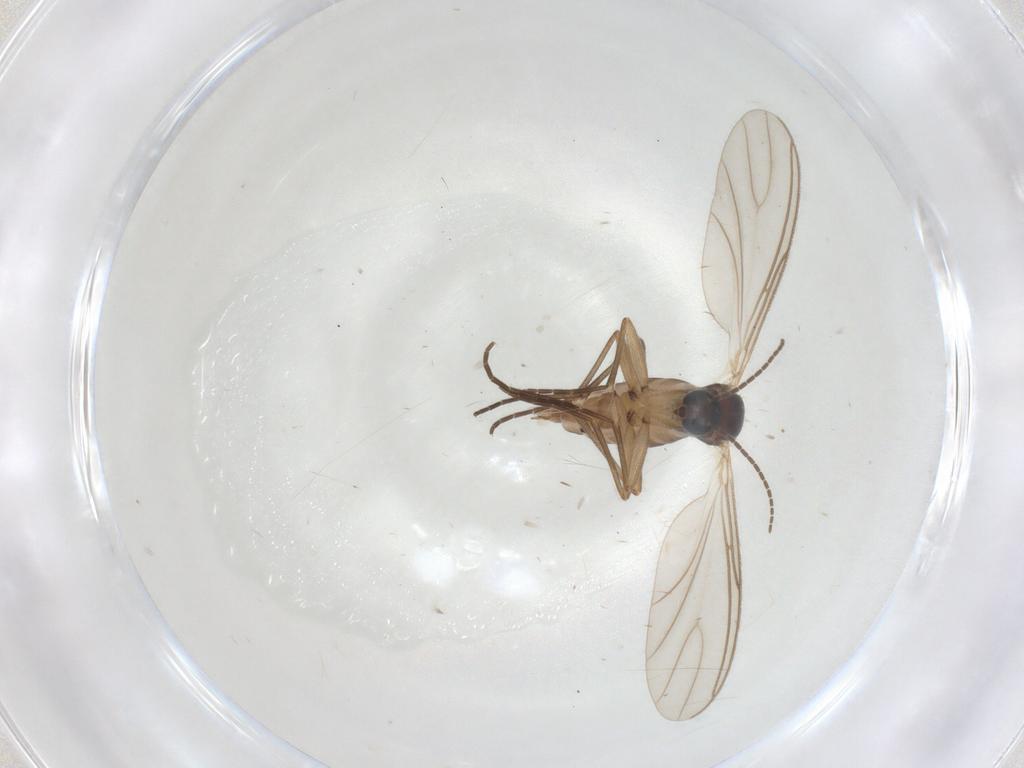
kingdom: Animalia
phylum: Arthropoda
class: Insecta
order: Diptera
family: Sciaridae
